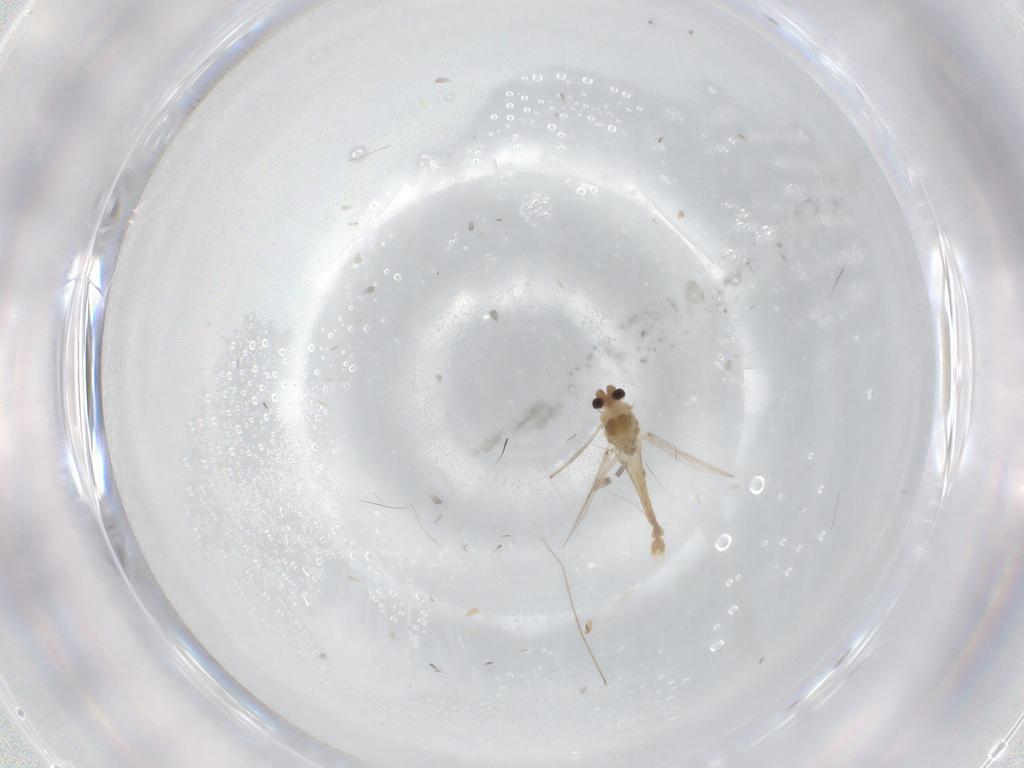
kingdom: Animalia
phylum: Arthropoda
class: Insecta
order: Diptera
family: Chironomidae
